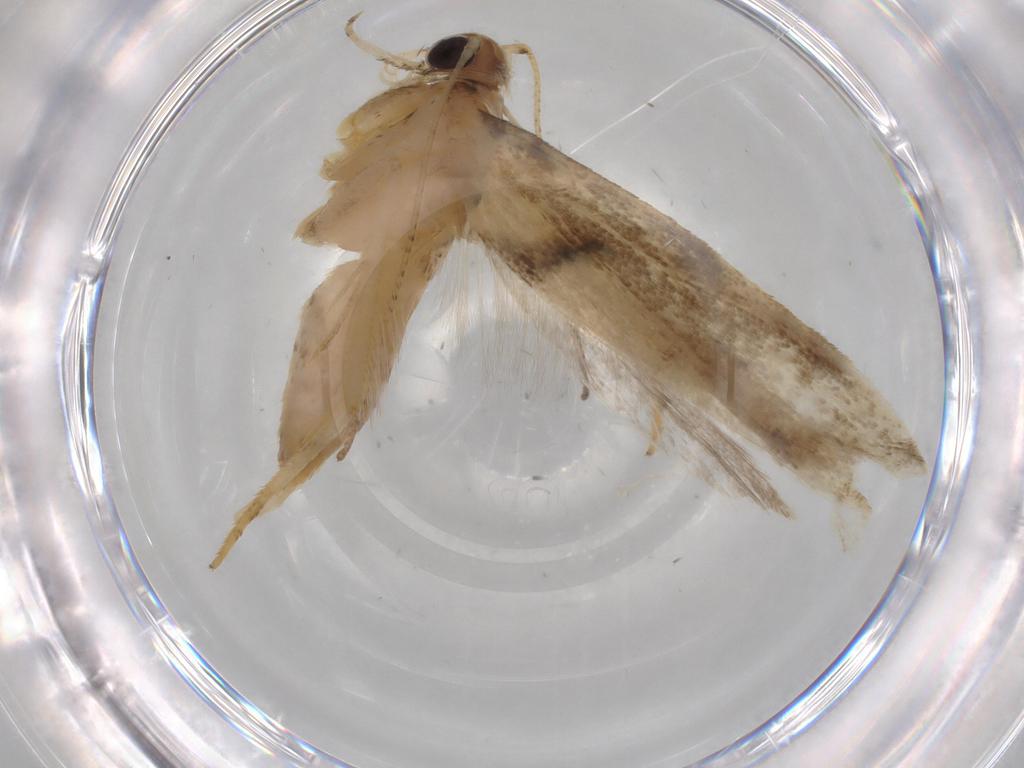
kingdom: Animalia
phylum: Arthropoda
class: Insecta
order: Lepidoptera
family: Gelechiidae
